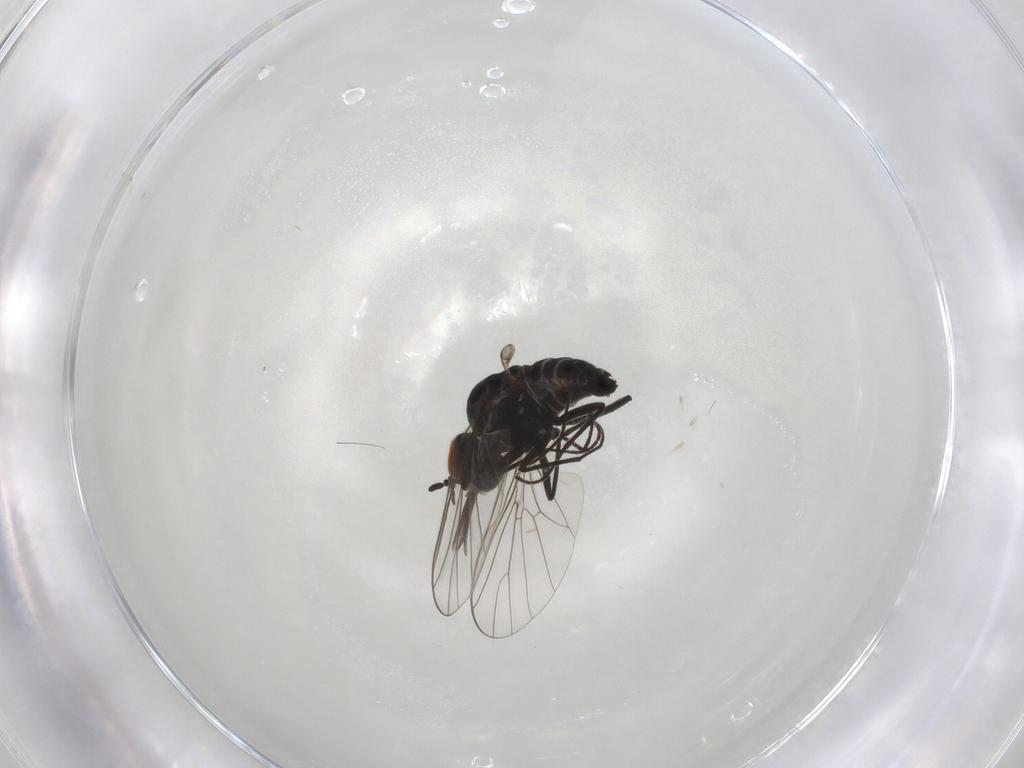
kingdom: Animalia
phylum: Arthropoda
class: Insecta
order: Diptera
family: Bombyliidae
